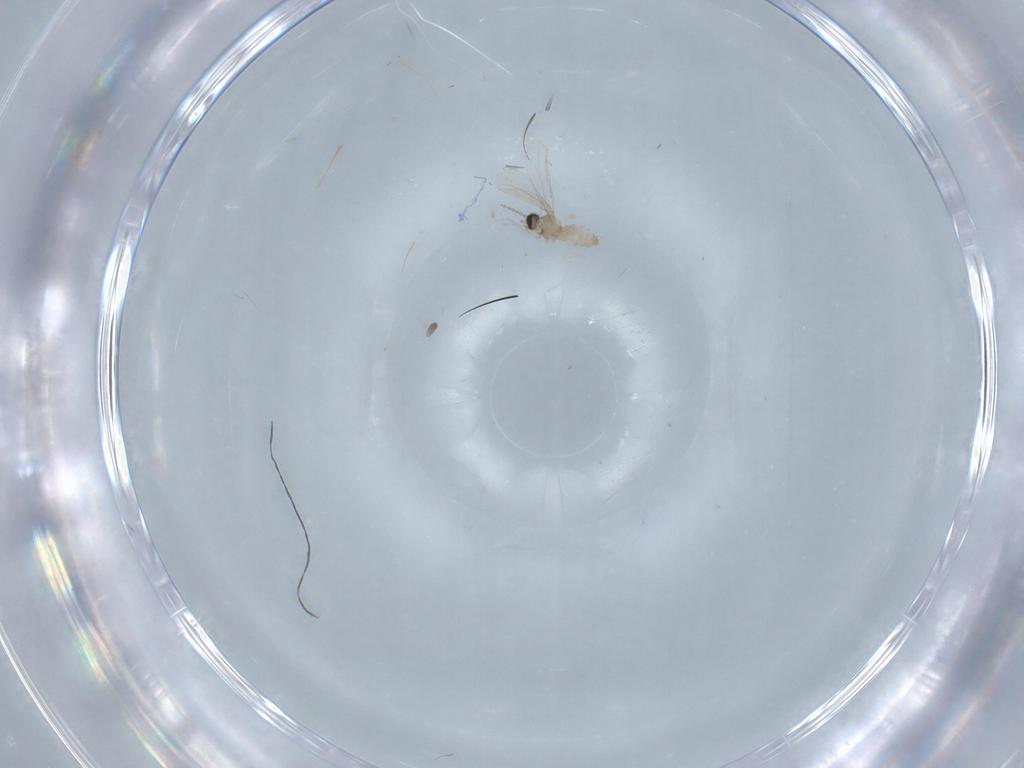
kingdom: Animalia
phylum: Arthropoda
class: Insecta
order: Diptera
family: Cecidomyiidae
